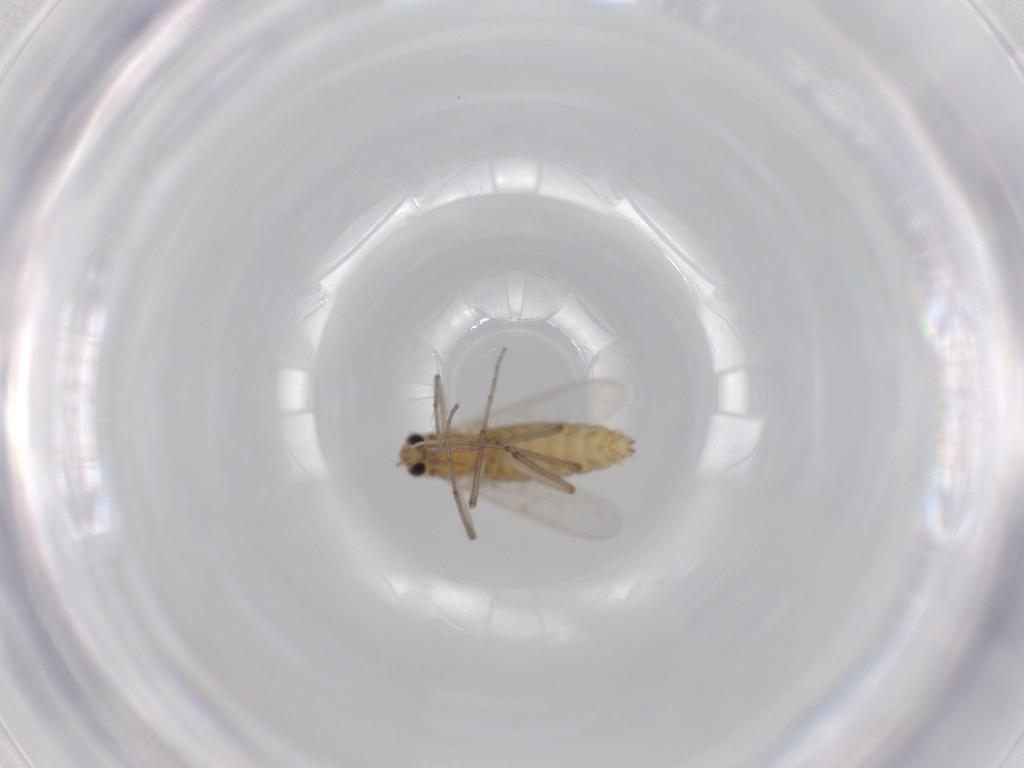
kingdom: Animalia
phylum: Arthropoda
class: Insecta
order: Diptera
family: Chironomidae
